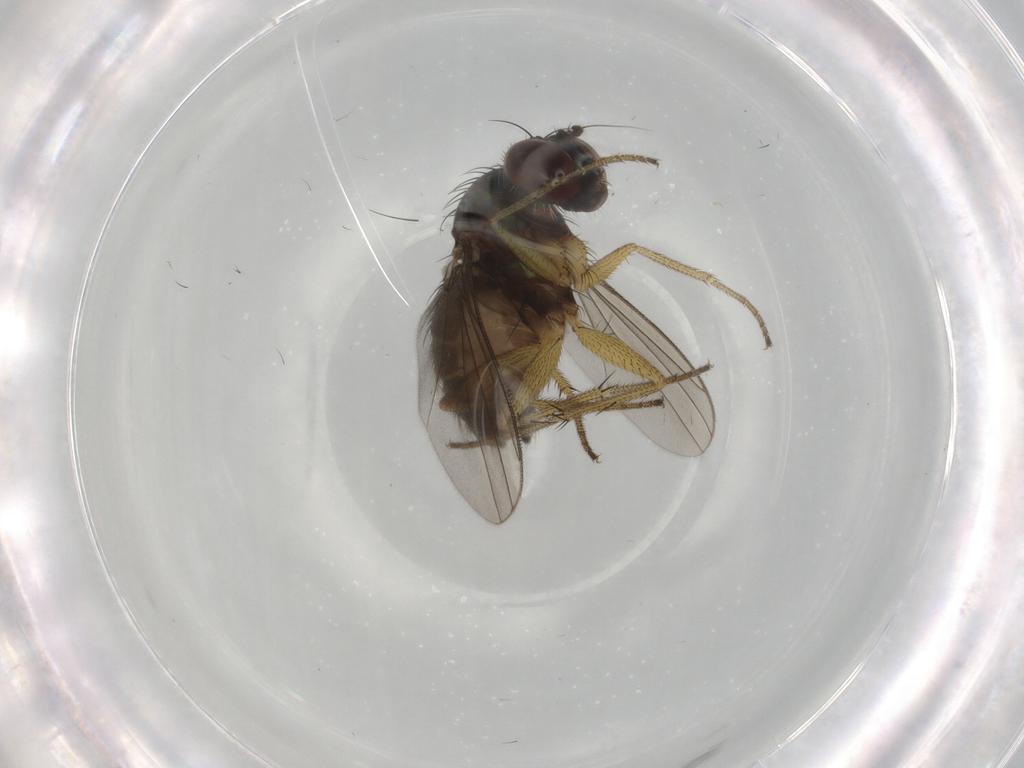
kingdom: Animalia
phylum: Arthropoda
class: Insecta
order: Diptera
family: Dolichopodidae
